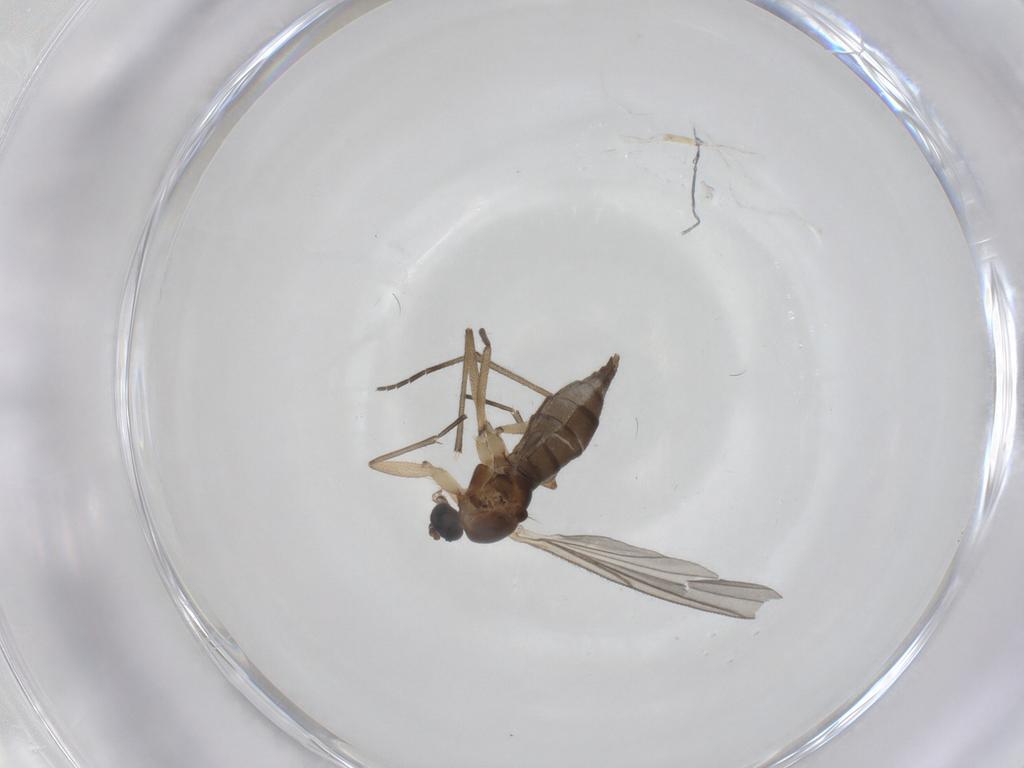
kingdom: Animalia
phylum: Arthropoda
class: Insecta
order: Diptera
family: Sciaridae
